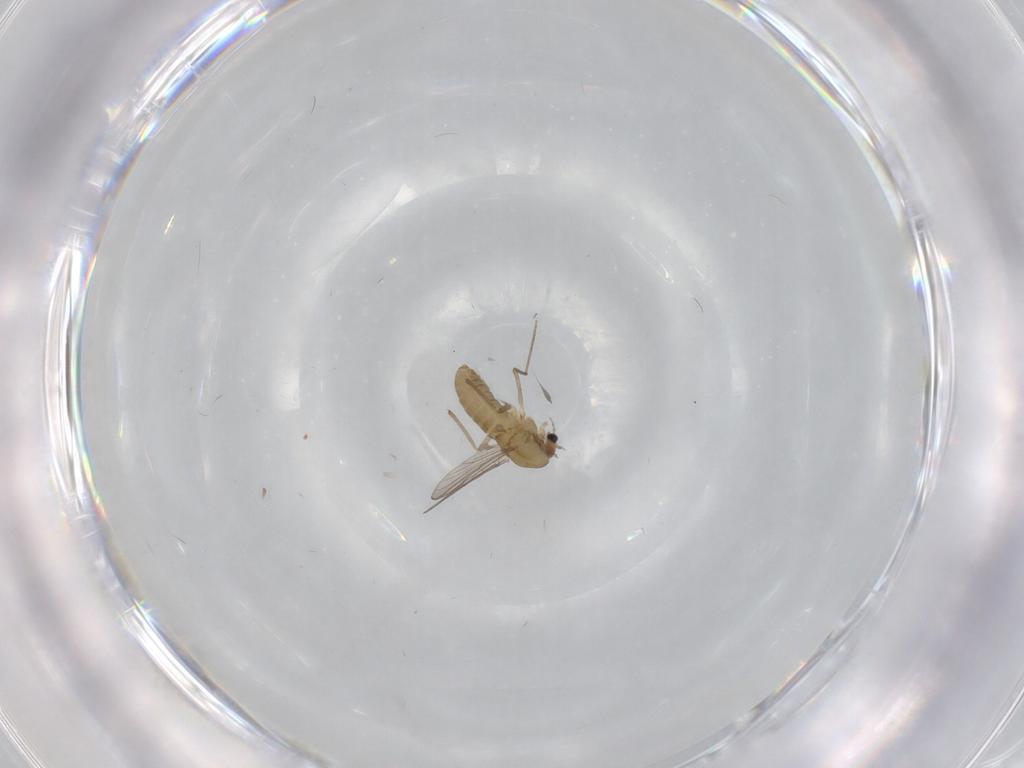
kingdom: Animalia
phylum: Arthropoda
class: Insecta
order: Diptera
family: Chironomidae
